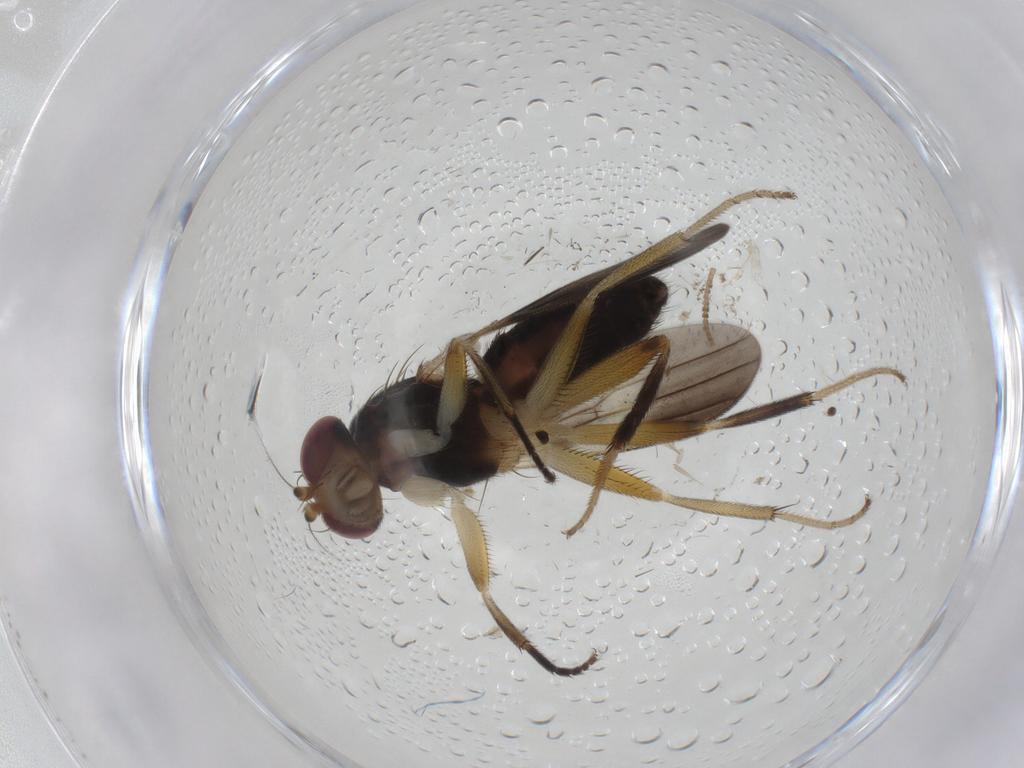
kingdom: Animalia
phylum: Arthropoda
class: Insecta
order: Diptera
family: Clusiidae
